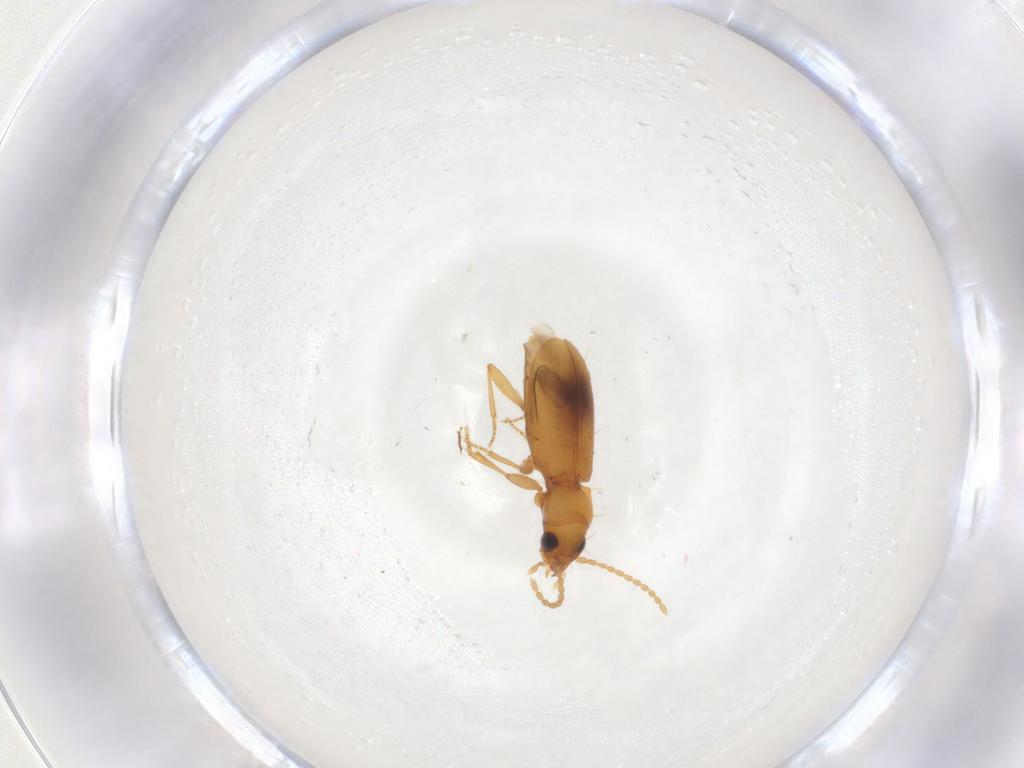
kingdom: Animalia
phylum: Arthropoda
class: Insecta
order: Coleoptera
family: Carabidae
